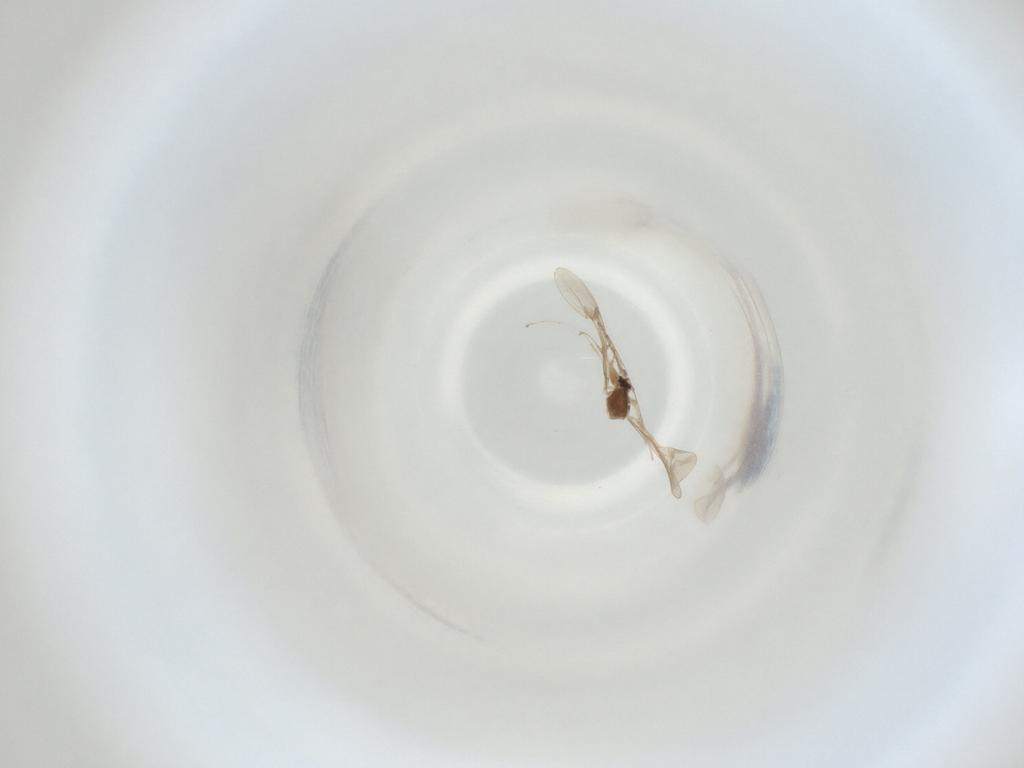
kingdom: Animalia
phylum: Arthropoda
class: Insecta
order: Diptera
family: Cecidomyiidae
